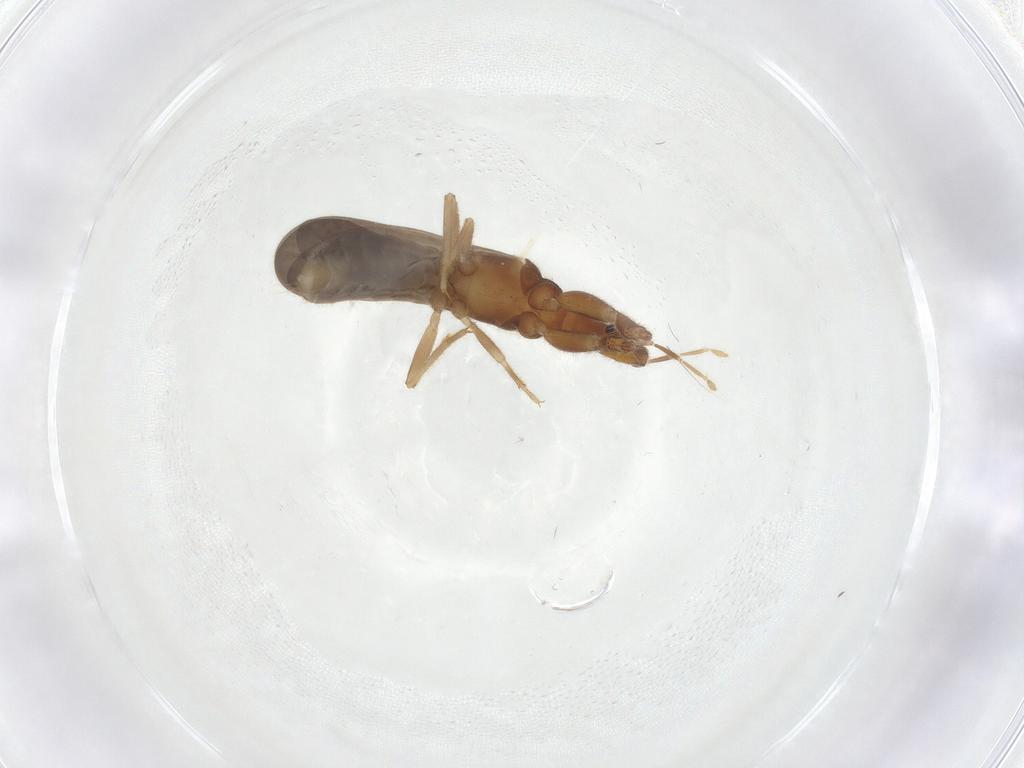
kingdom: Animalia
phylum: Arthropoda
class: Insecta
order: Hemiptera
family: Enicocephalidae
